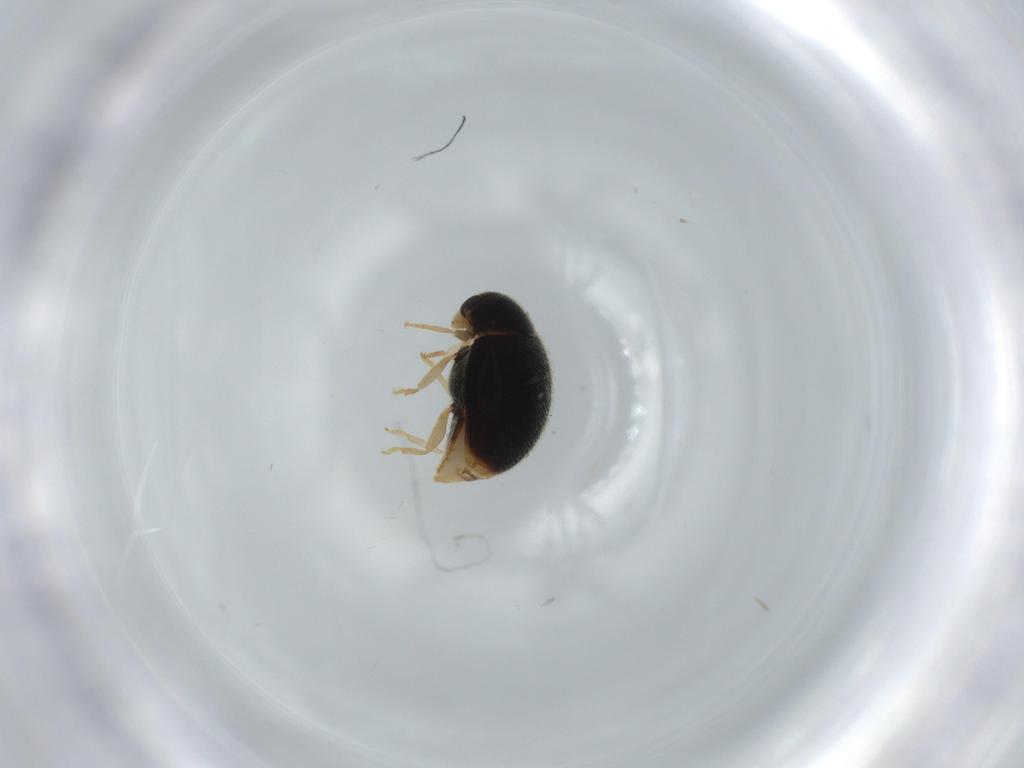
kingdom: Animalia
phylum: Arthropoda
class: Insecta
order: Coleoptera
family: Coccinellidae
